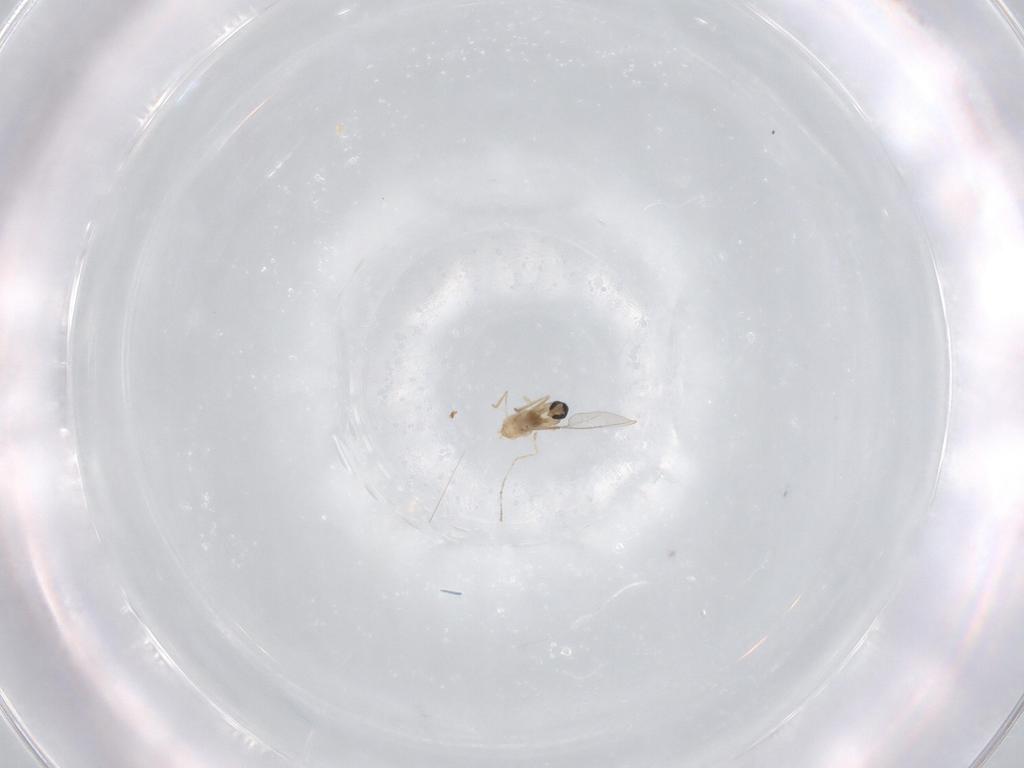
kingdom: Animalia
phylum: Arthropoda
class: Insecta
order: Diptera
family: Cecidomyiidae
